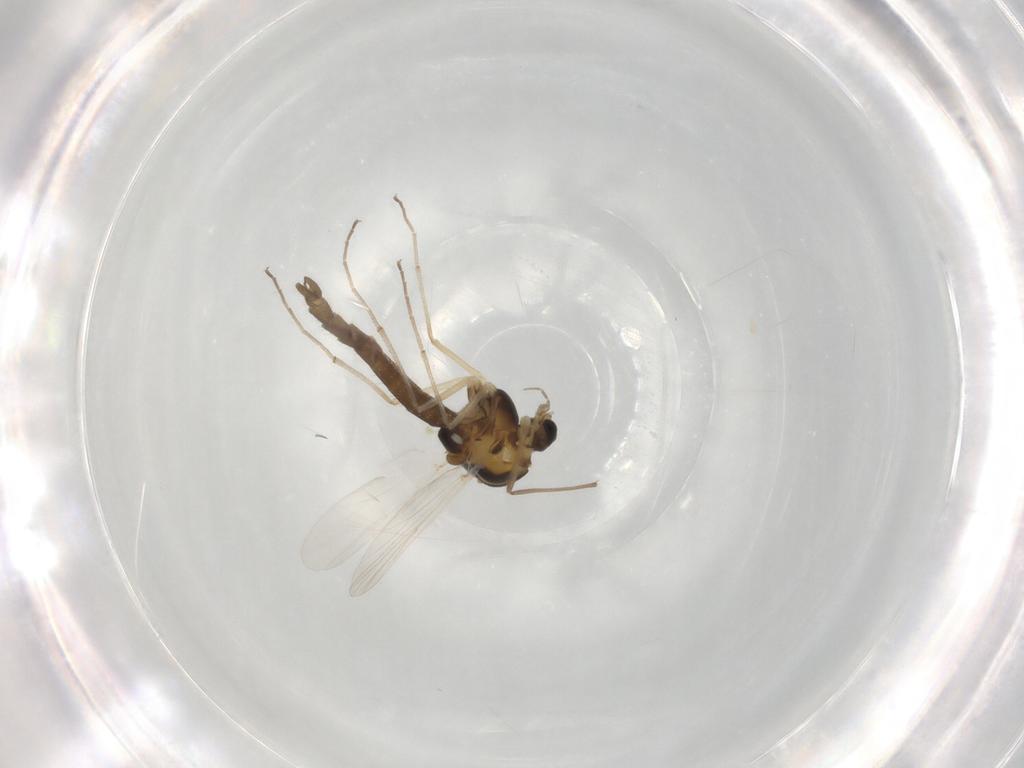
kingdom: Animalia
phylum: Arthropoda
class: Insecta
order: Diptera
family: Chironomidae
